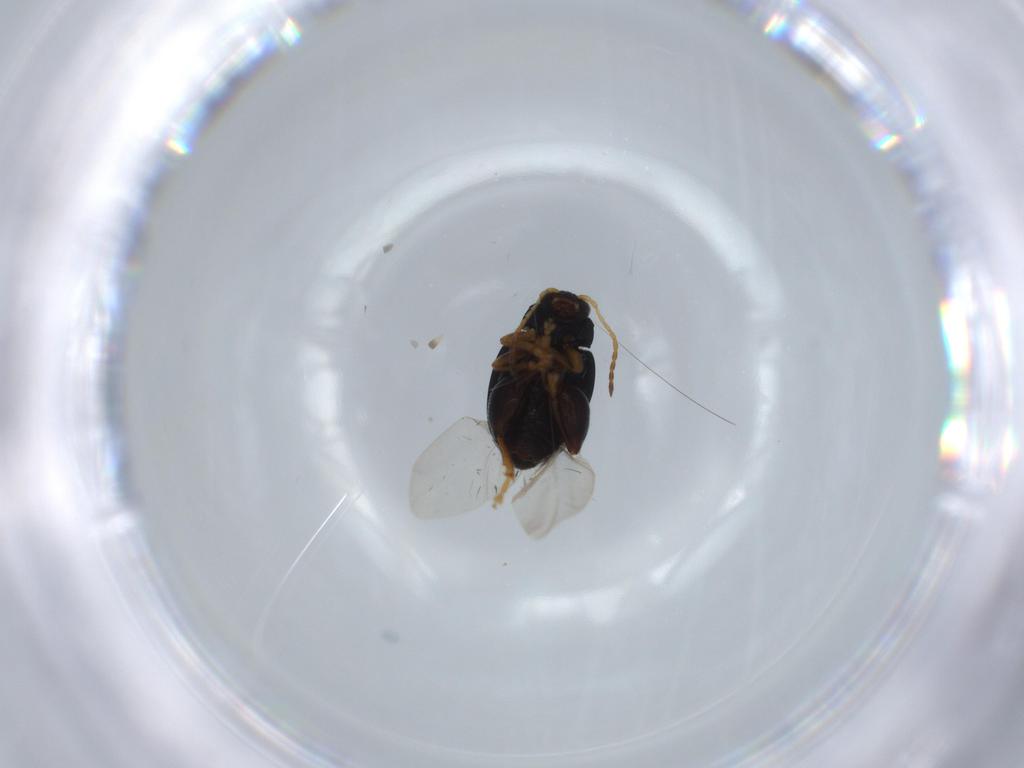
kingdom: Animalia
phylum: Arthropoda
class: Insecta
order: Coleoptera
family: Chrysomelidae
